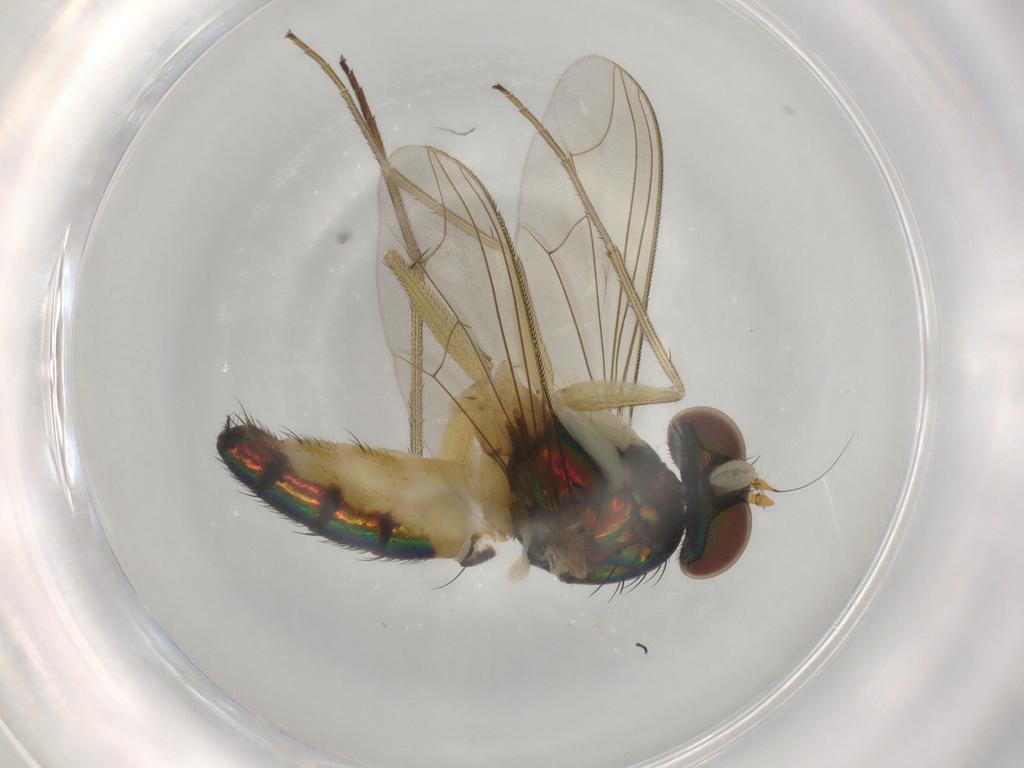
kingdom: Animalia
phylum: Arthropoda
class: Insecta
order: Diptera
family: Dolichopodidae
